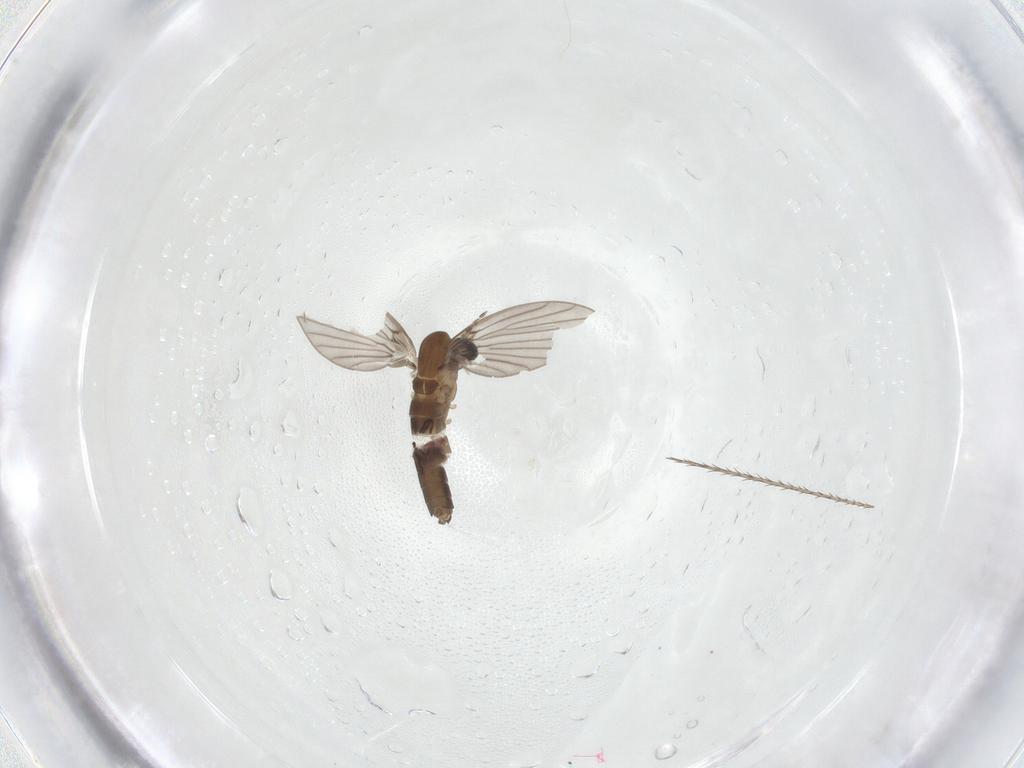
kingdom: Animalia
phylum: Arthropoda
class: Insecta
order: Diptera
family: Psychodidae
